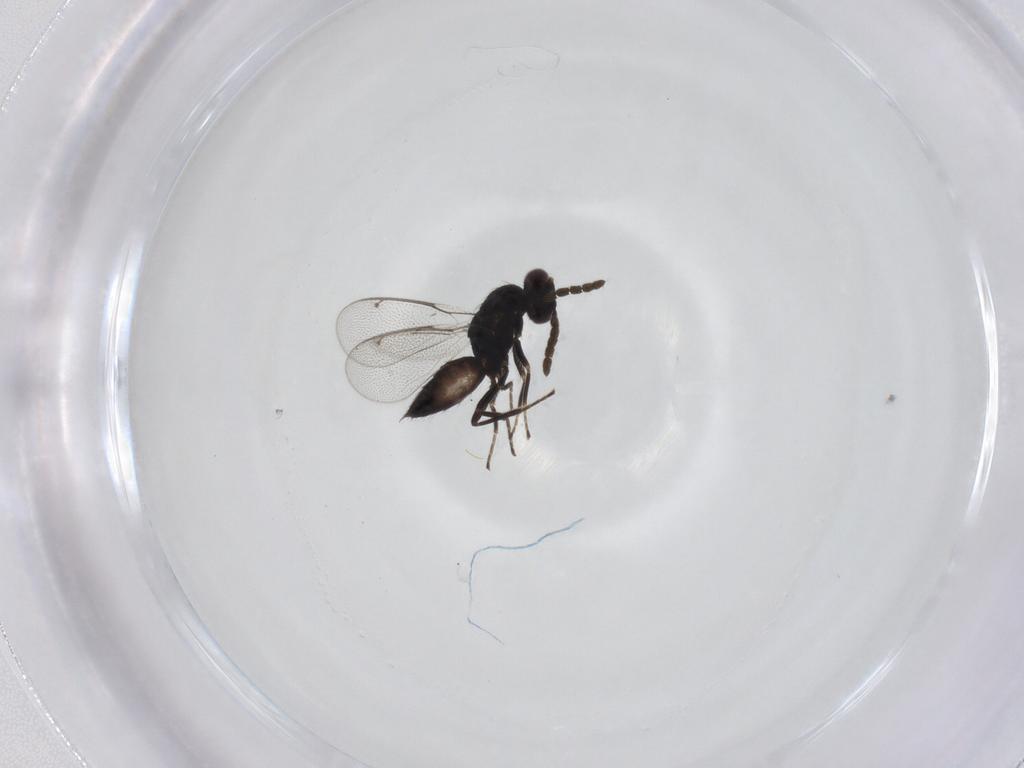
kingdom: Animalia
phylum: Arthropoda
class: Insecta
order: Hymenoptera
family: Eulophidae
